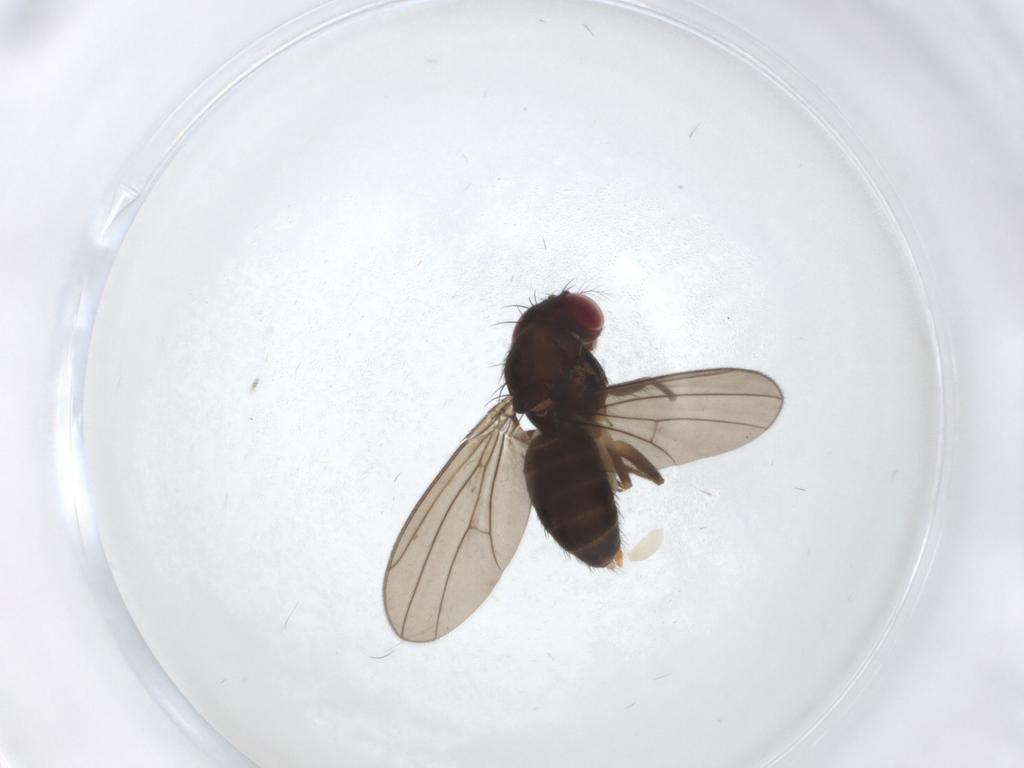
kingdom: Animalia
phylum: Arthropoda
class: Insecta
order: Diptera
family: Drosophilidae
